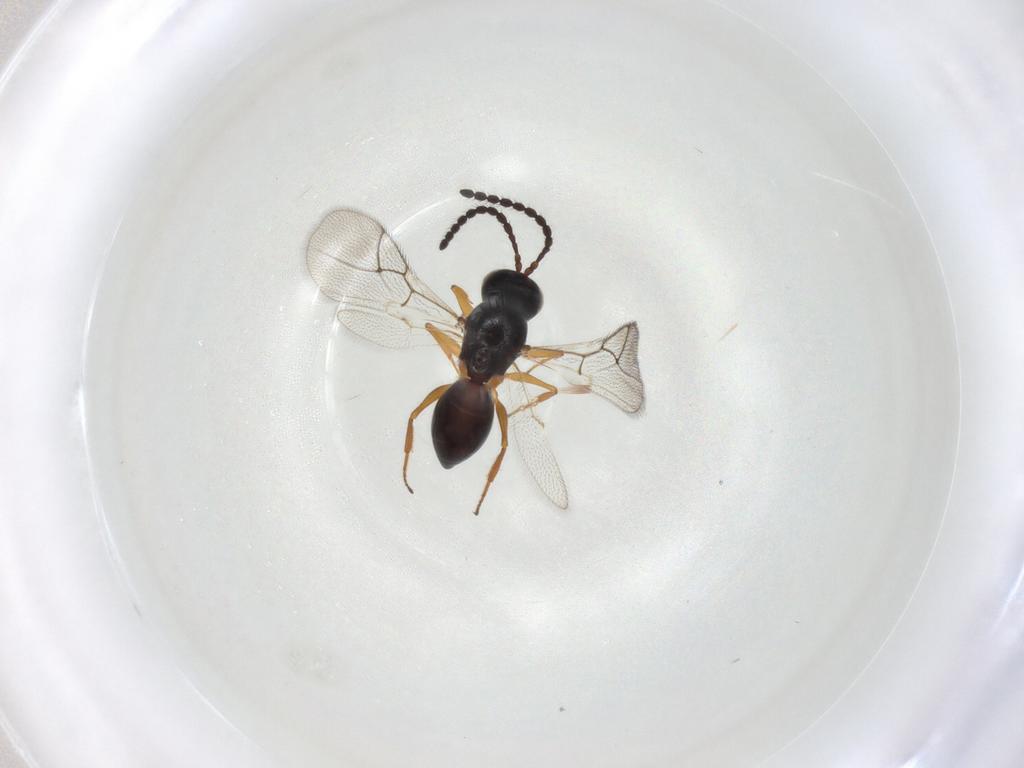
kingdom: Animalia
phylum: Arthropoda
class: Insecta
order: Hymenoptera
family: Figitidae
